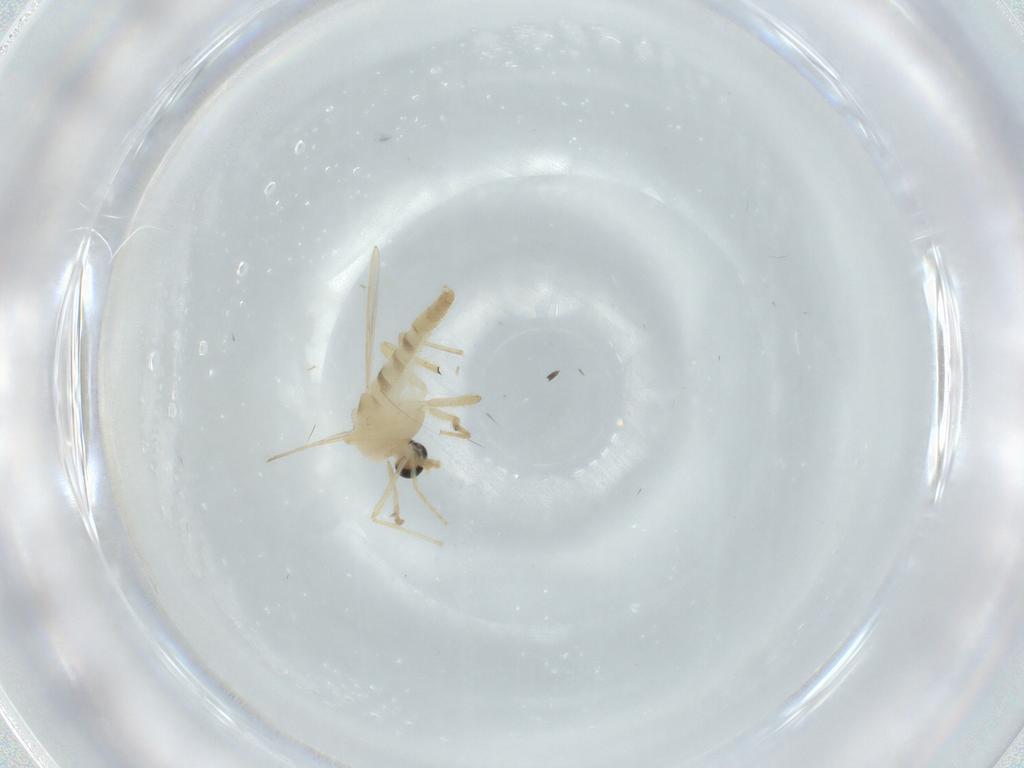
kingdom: Animalia
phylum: Arthropoda
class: Insecta
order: Diptera
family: Chironomidae
